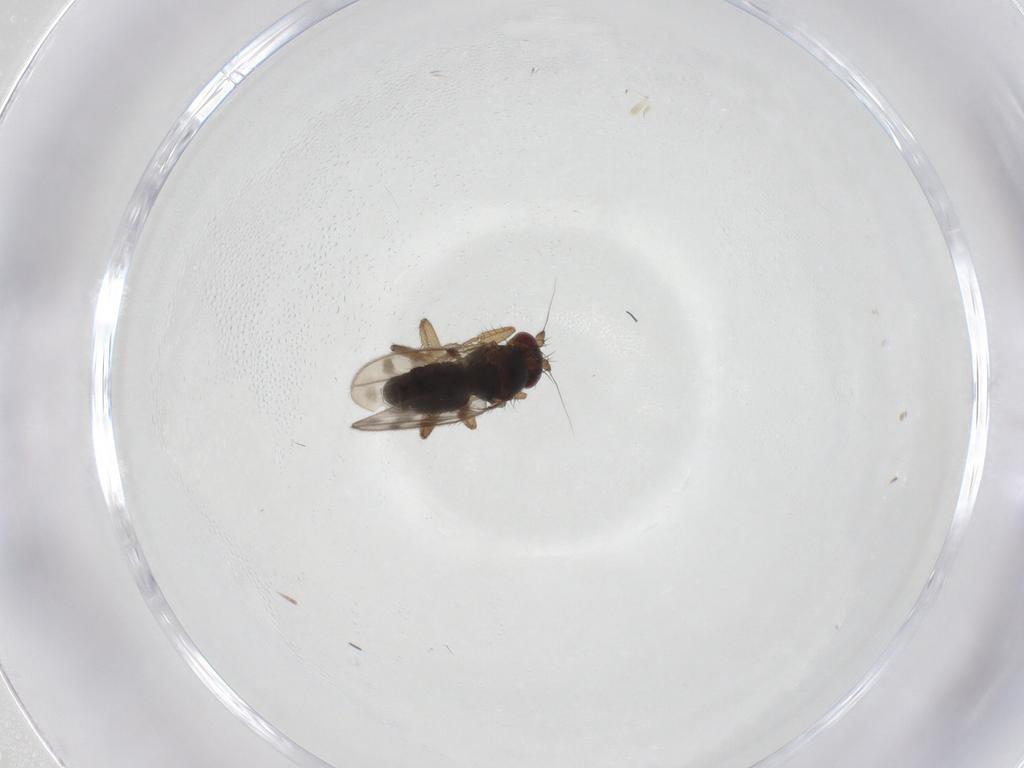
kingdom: Animalia
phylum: Arthropoda
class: Insecta
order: Diptera
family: Sphaeroceridae
